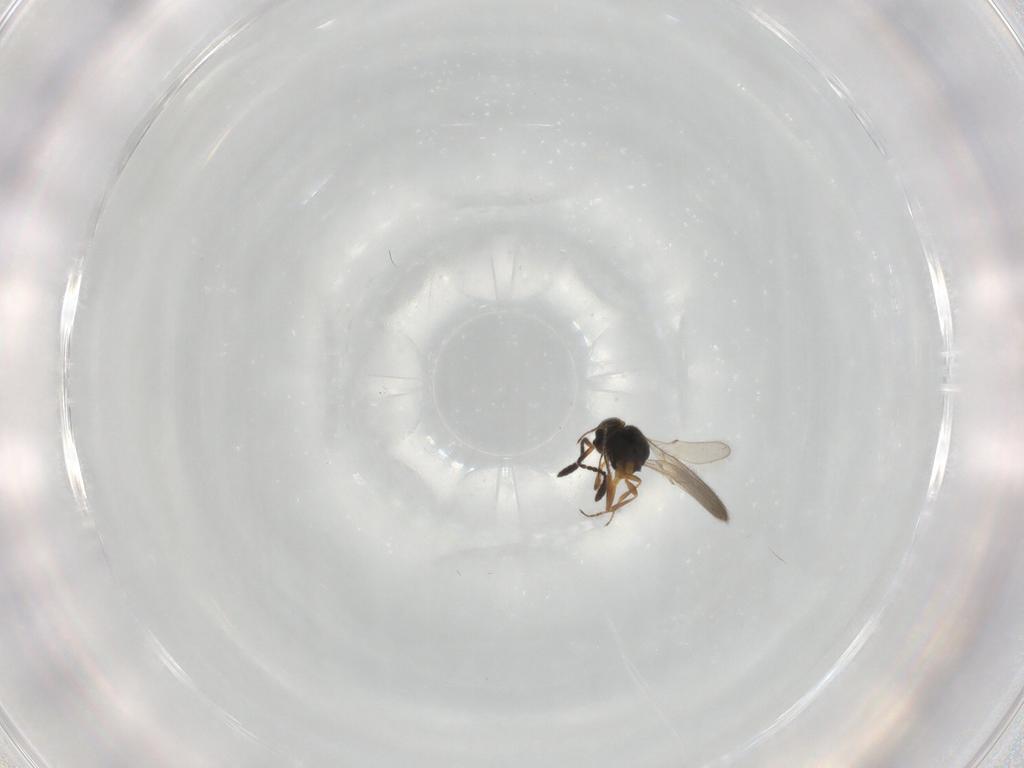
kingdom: Animalia
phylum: Arthropoda
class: Insecta
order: Hymenoptera
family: Scelionidae
